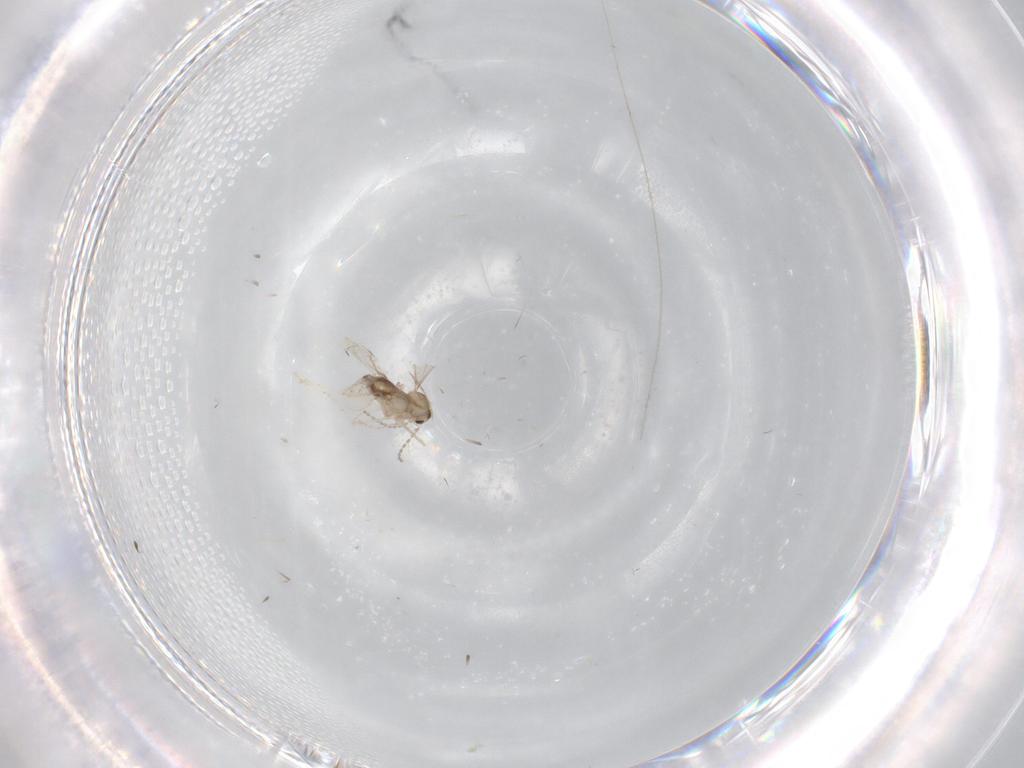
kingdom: Animalia
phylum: Arthropoda
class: Insecta
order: Diptera
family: Cecidomyiidae
